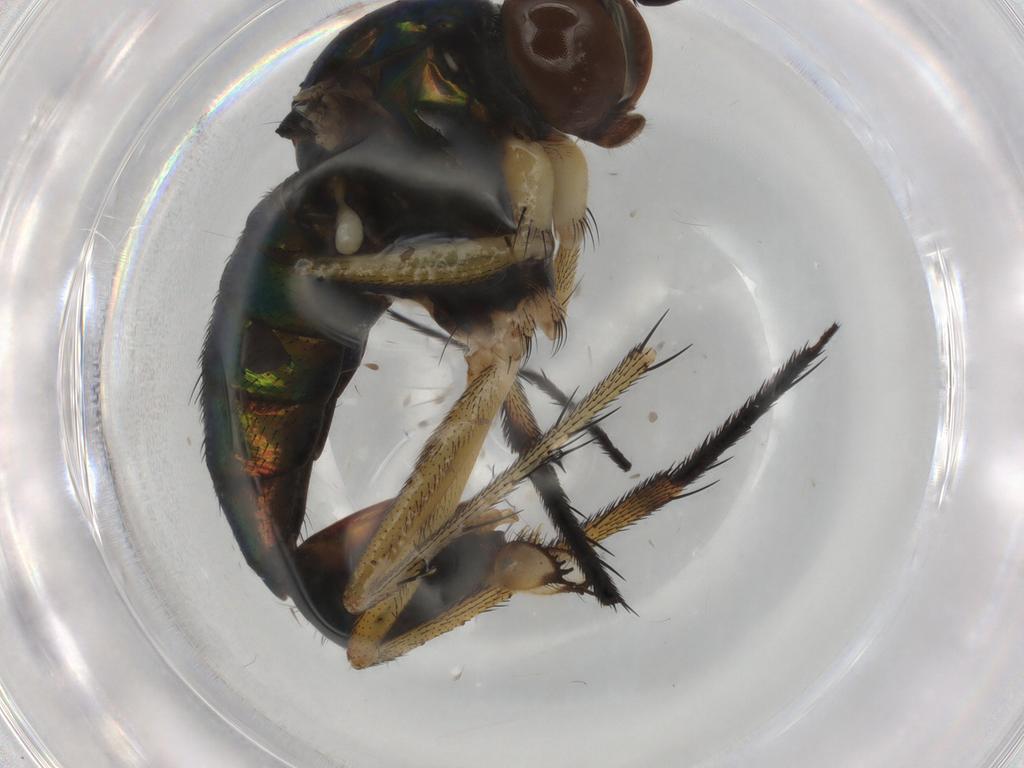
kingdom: Animalia
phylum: Arthropoda
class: Insecta
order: Diptera
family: Dolichopodidae
